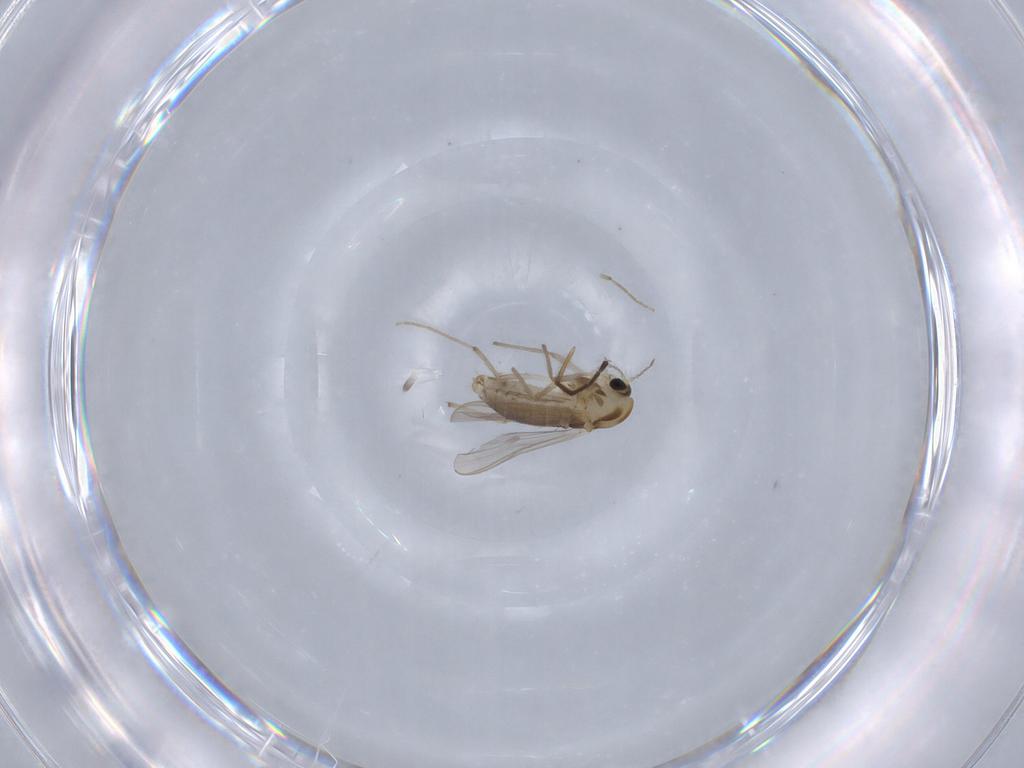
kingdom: Animalia
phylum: Arthropoda
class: Insecta
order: Diptera
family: Chironomidae
